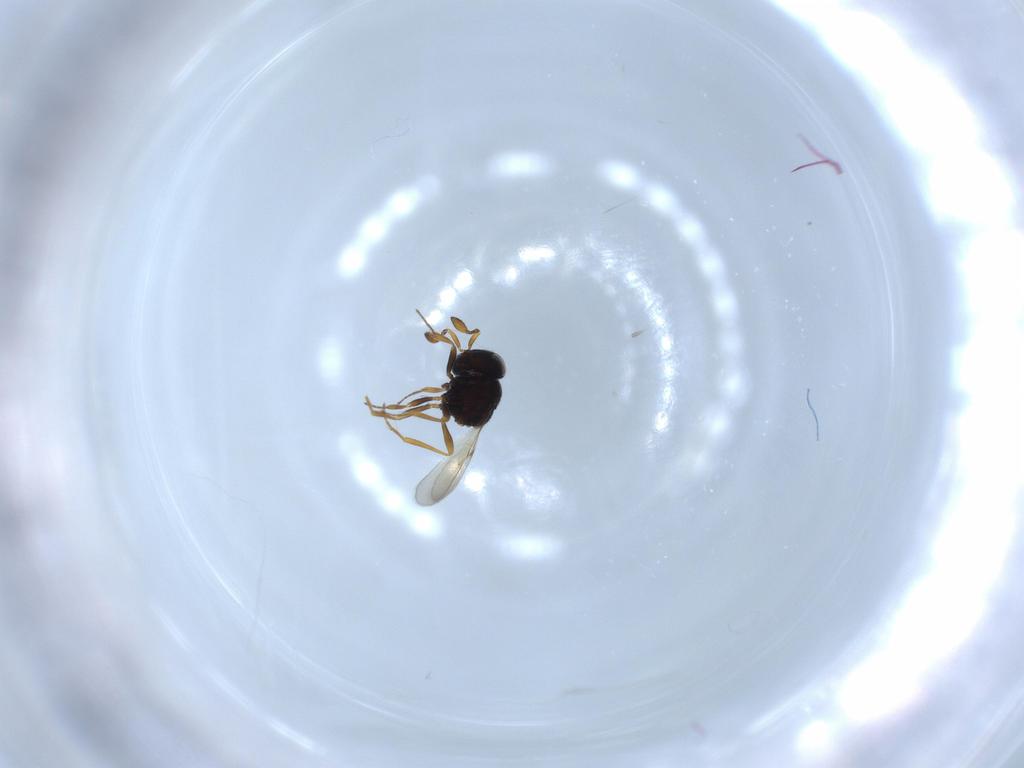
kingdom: Animalia
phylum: Arthropoda
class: Insecta
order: Hymenoptera
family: Scelionidae
